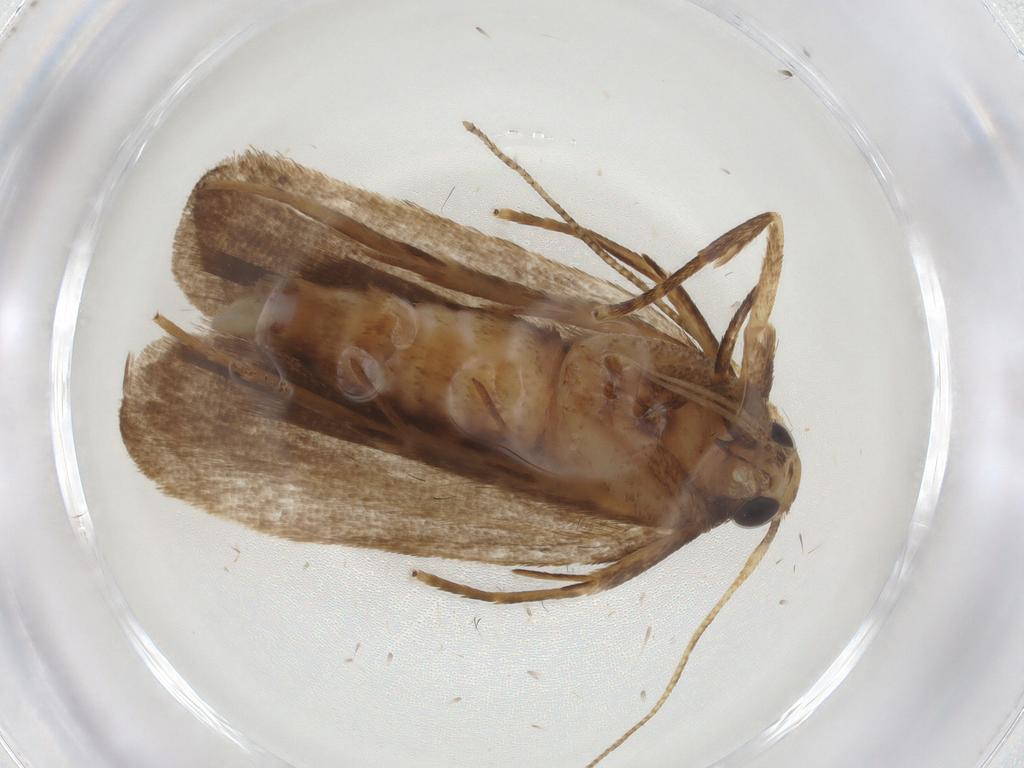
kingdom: Animalia
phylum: Arthropoda
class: Insecta
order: Lepidoptera
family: Autostichidae
